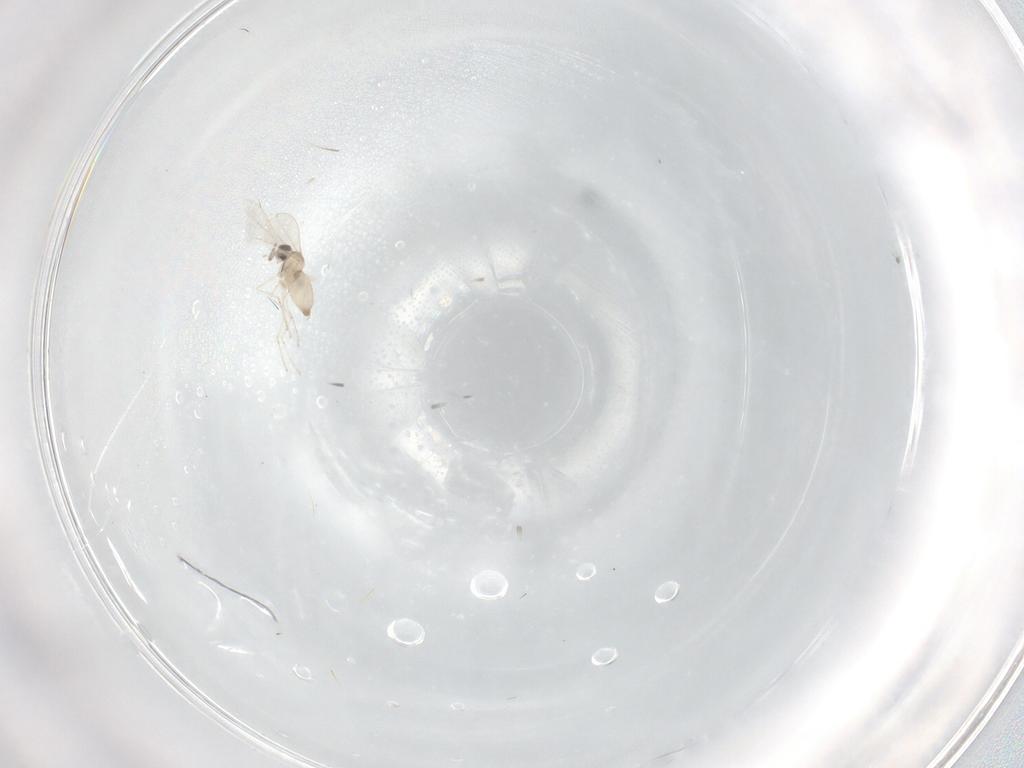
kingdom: Animalia
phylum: Arthropoda
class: Insecta
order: Diptera
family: Cecidomyiidae
